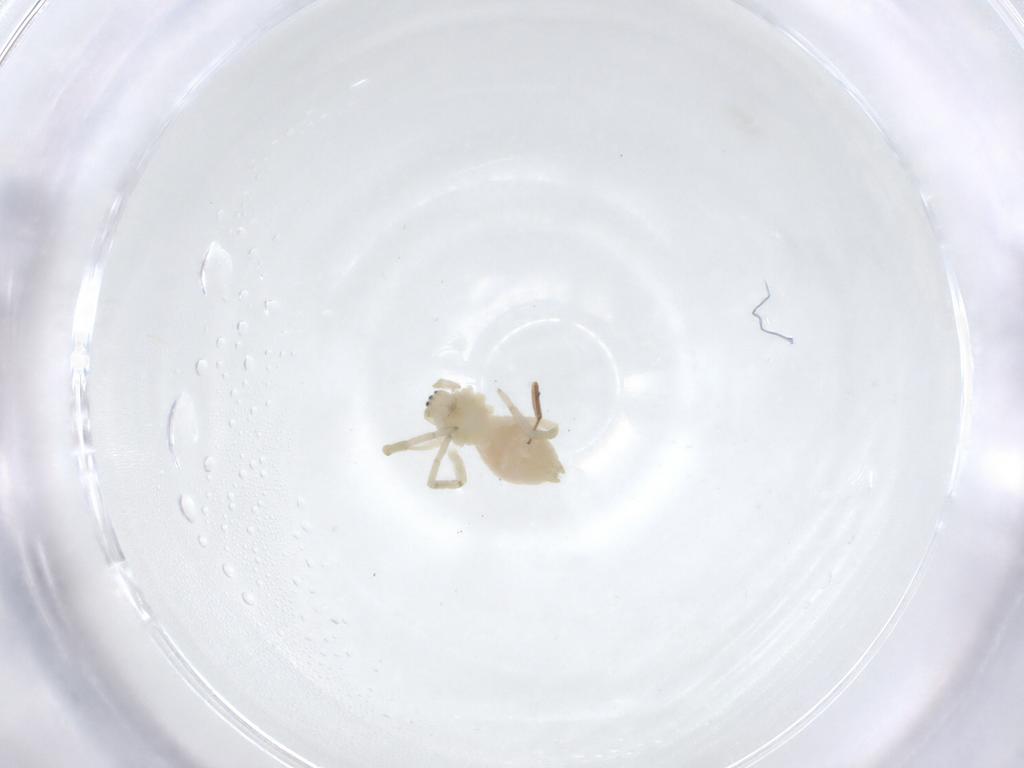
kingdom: Animalia
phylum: Arthropoda
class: Arachnida
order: Araneae
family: Dictynidae
